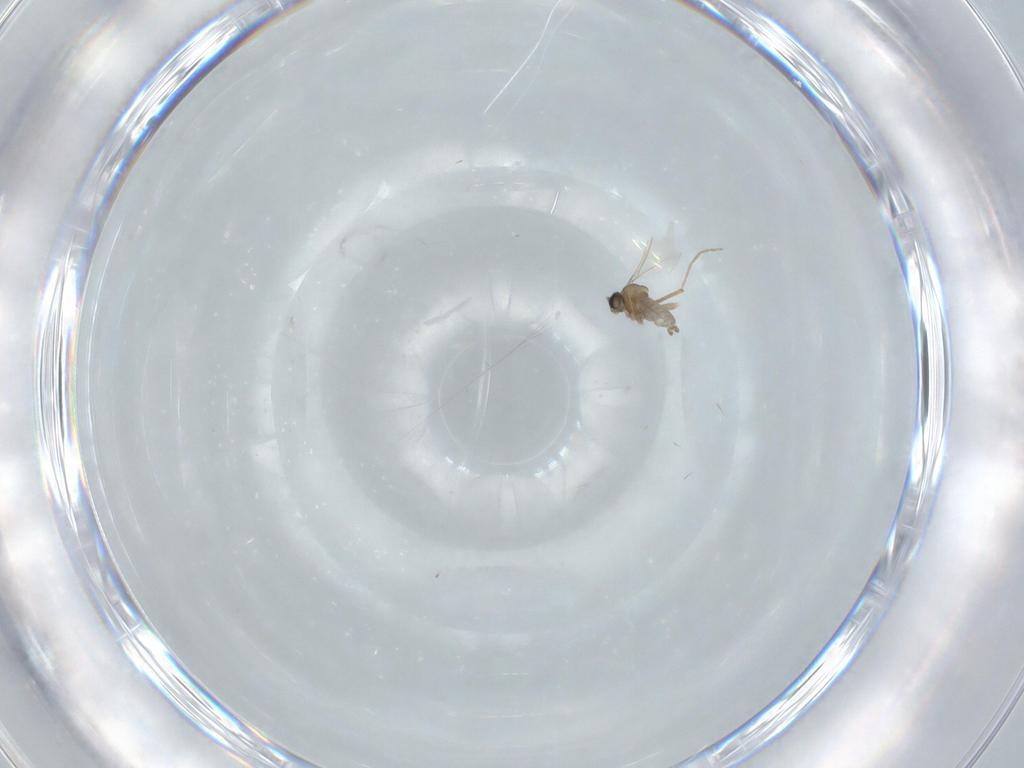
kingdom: Animalia
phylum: Arthropoda
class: Insecta
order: Diptera
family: Cecidomyiidae
